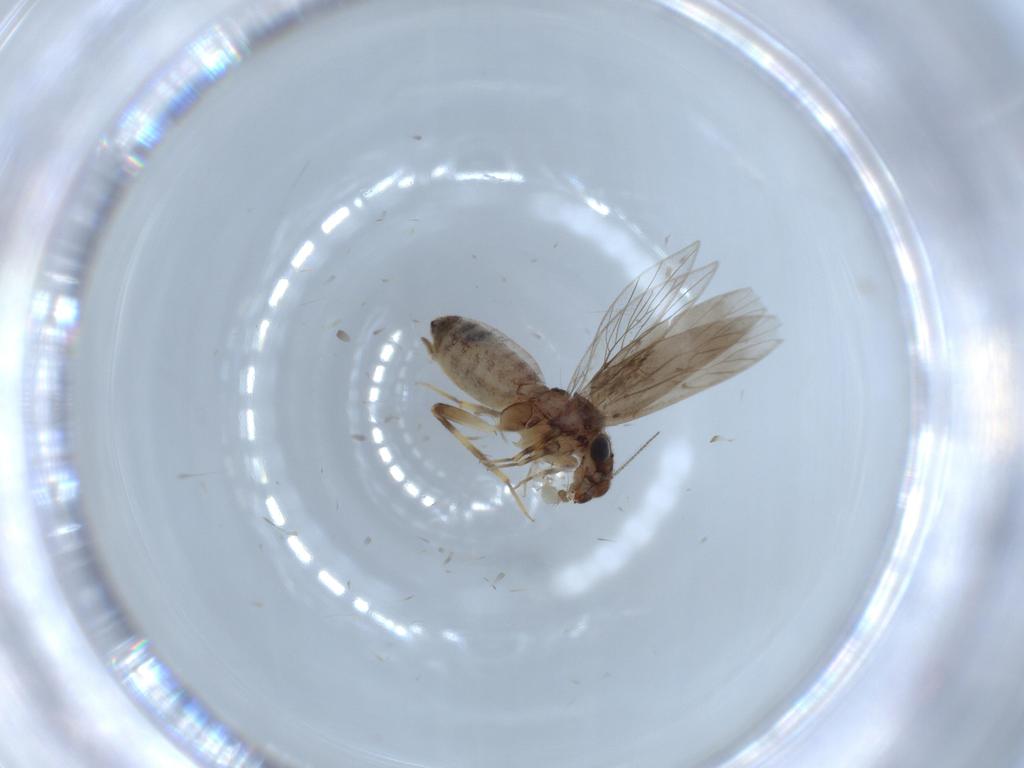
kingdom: Animalia
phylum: Arthropoda
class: Insecta
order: Psocodea
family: Lepidopsocidae
